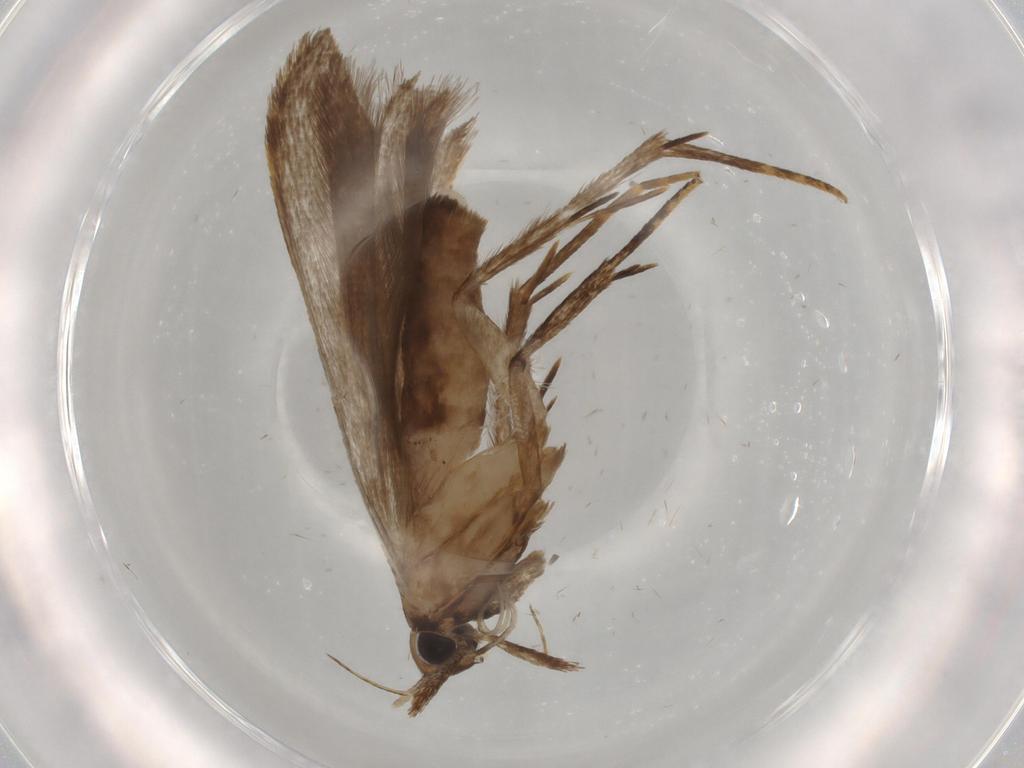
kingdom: Animalia
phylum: Arthropoda
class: Insecta
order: Lepidoptera
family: Gelechiidae
